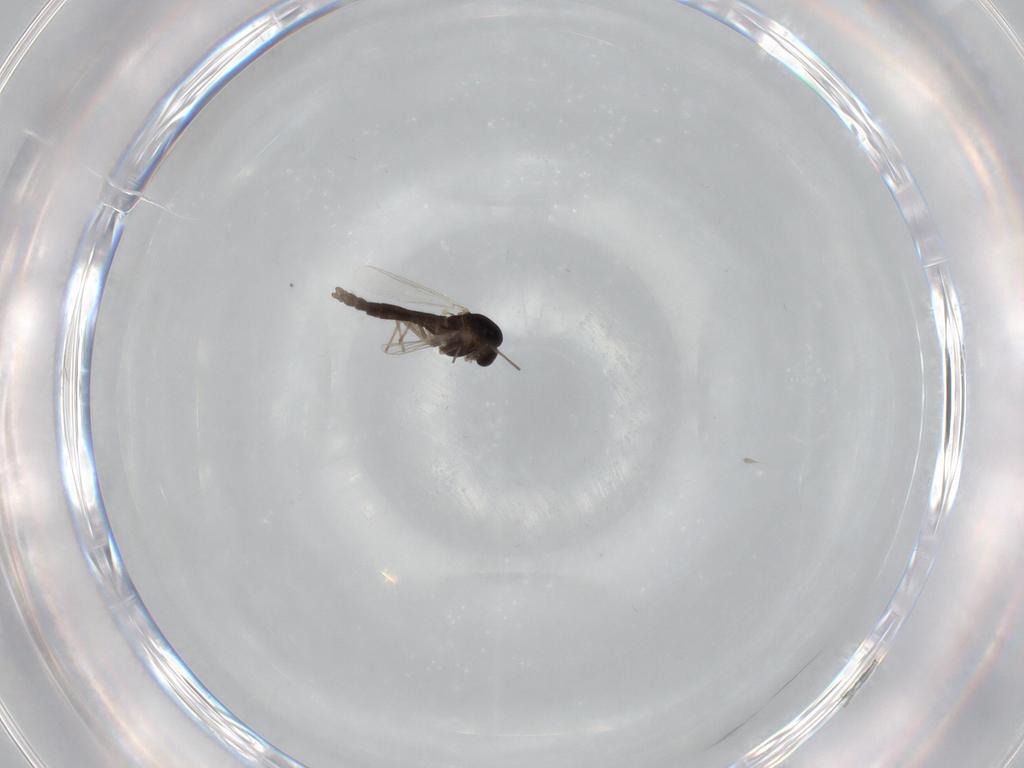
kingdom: Animalia
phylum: Arthropoda
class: Insecta
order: Diptera
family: Chironomidae
